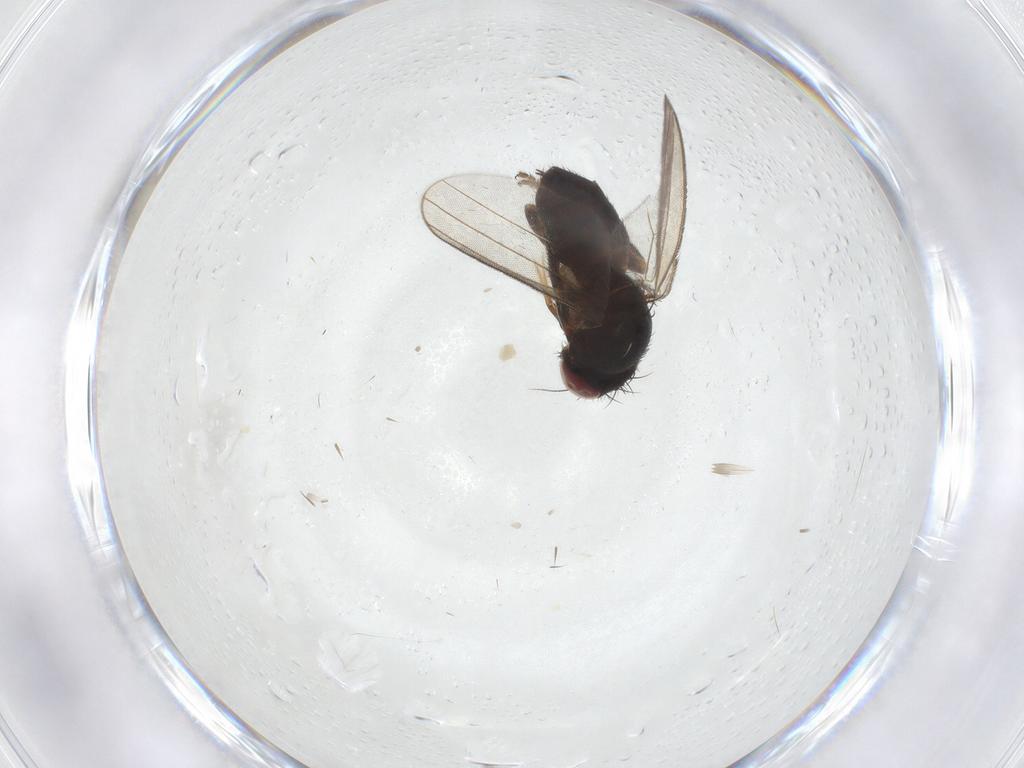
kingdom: Animalia
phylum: Arthropoda
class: Insecta
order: Diptera
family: Milichiidae
